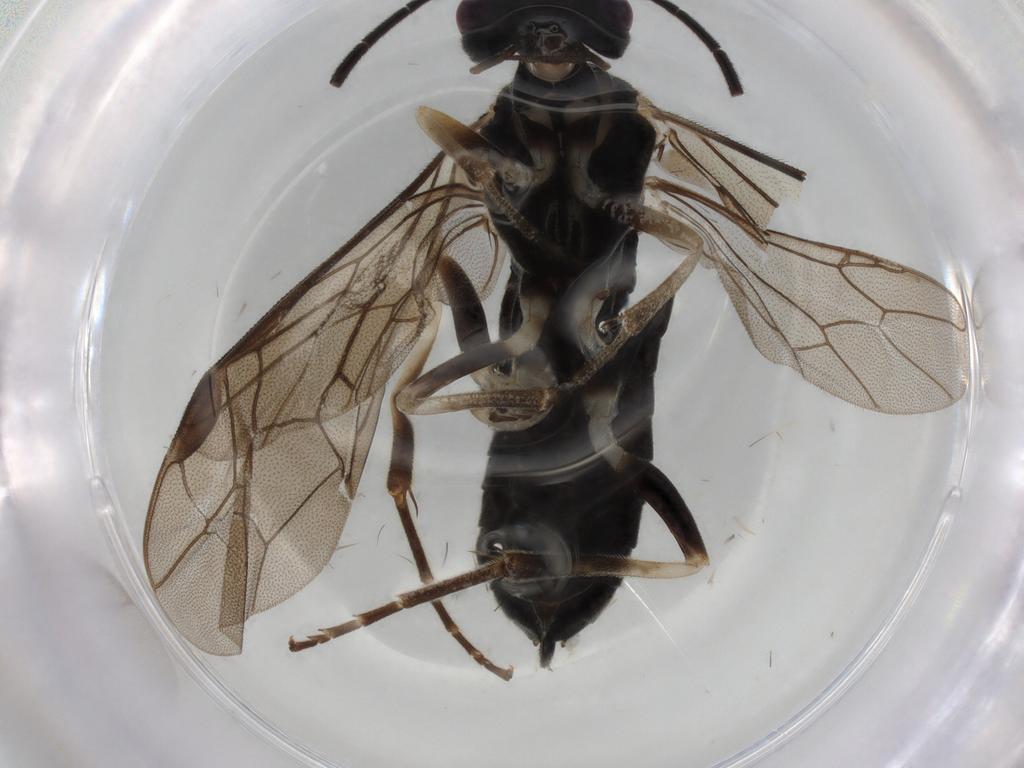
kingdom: Animalia
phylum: Arthropoda
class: Insecta
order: Hymenoptera
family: Tenthredinidae
